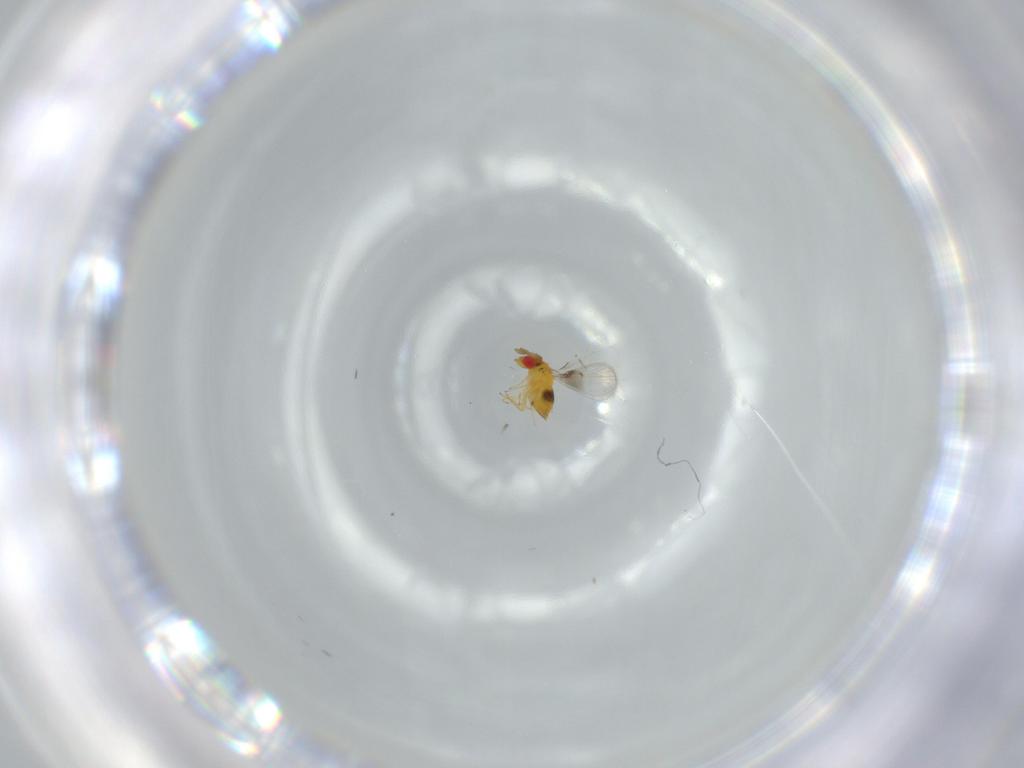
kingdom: Animalia
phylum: Arthropoda
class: Insecta
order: Hymenoptera
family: Trichogrammatidae
